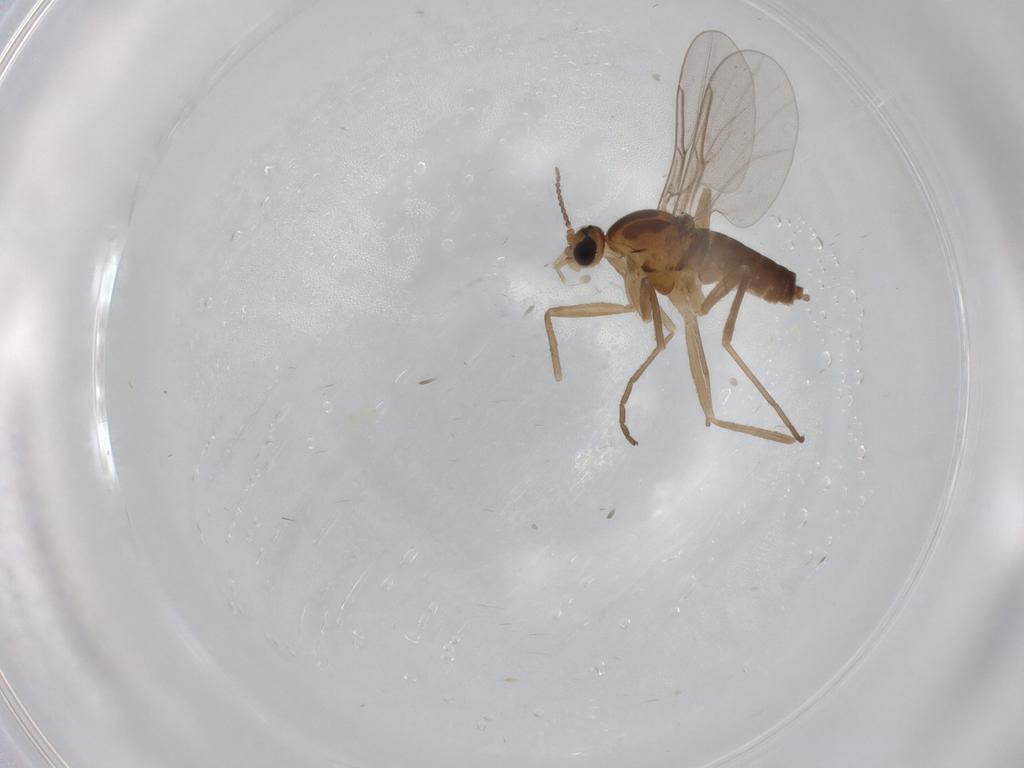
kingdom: Animalia
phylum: Arthropoda
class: Insecta
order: Diptera
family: Cecidomyiidae
